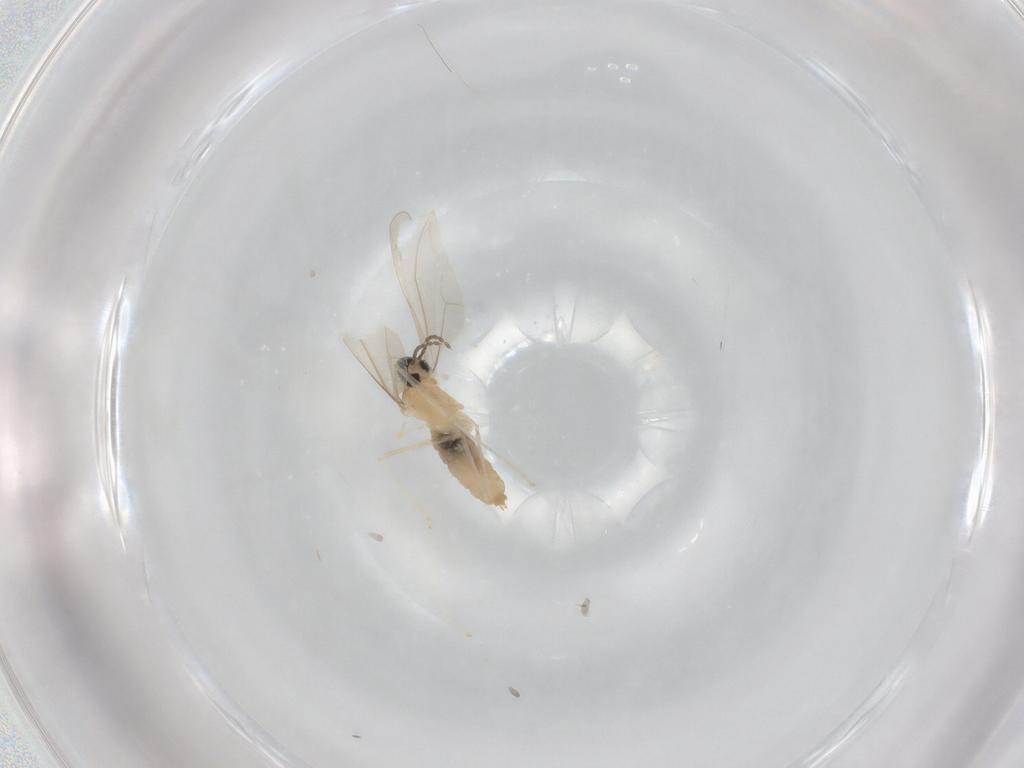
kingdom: Animalia
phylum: Arthropoda
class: Insecta
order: Diptera
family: Cecidomyiidae
